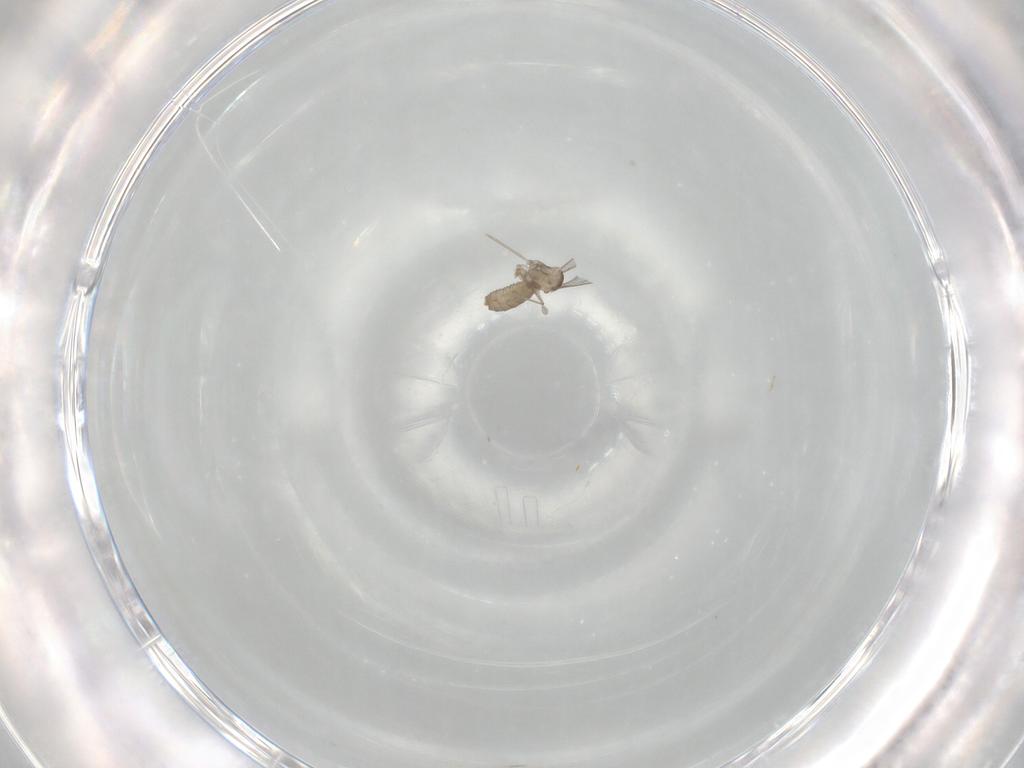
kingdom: Animalia
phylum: Arthropoda
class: Insecta
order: Diptera
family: Cecidomyiidae
